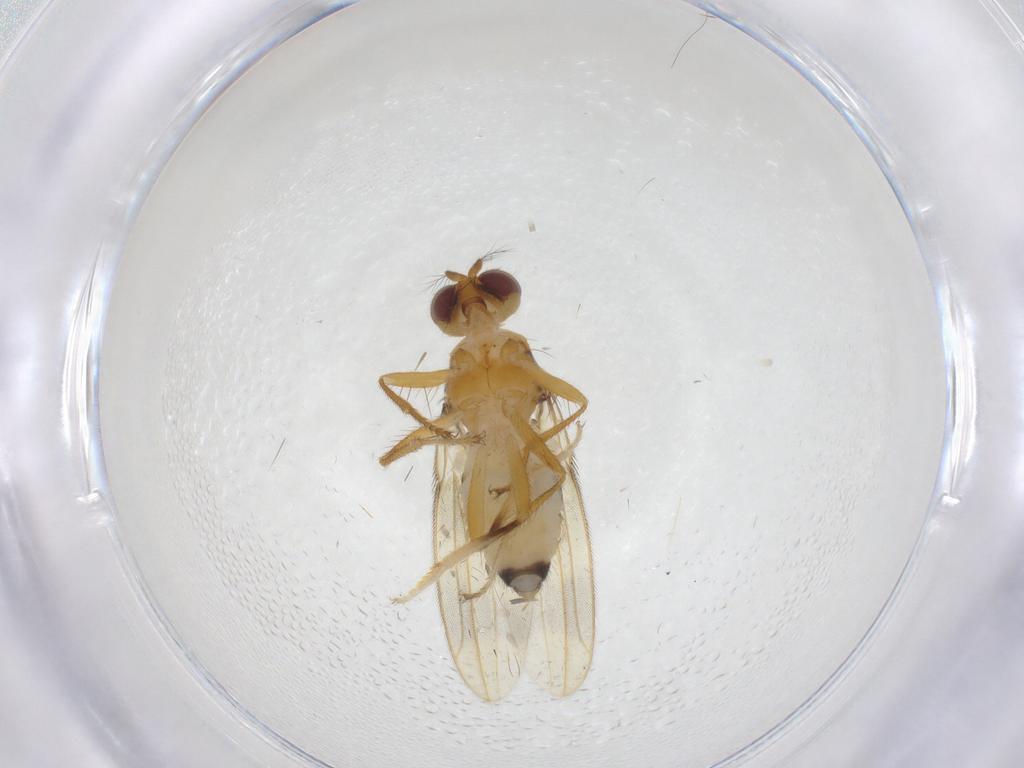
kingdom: Animalia
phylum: Arthropoda
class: Insecta
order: Diptera
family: Periscelididae
